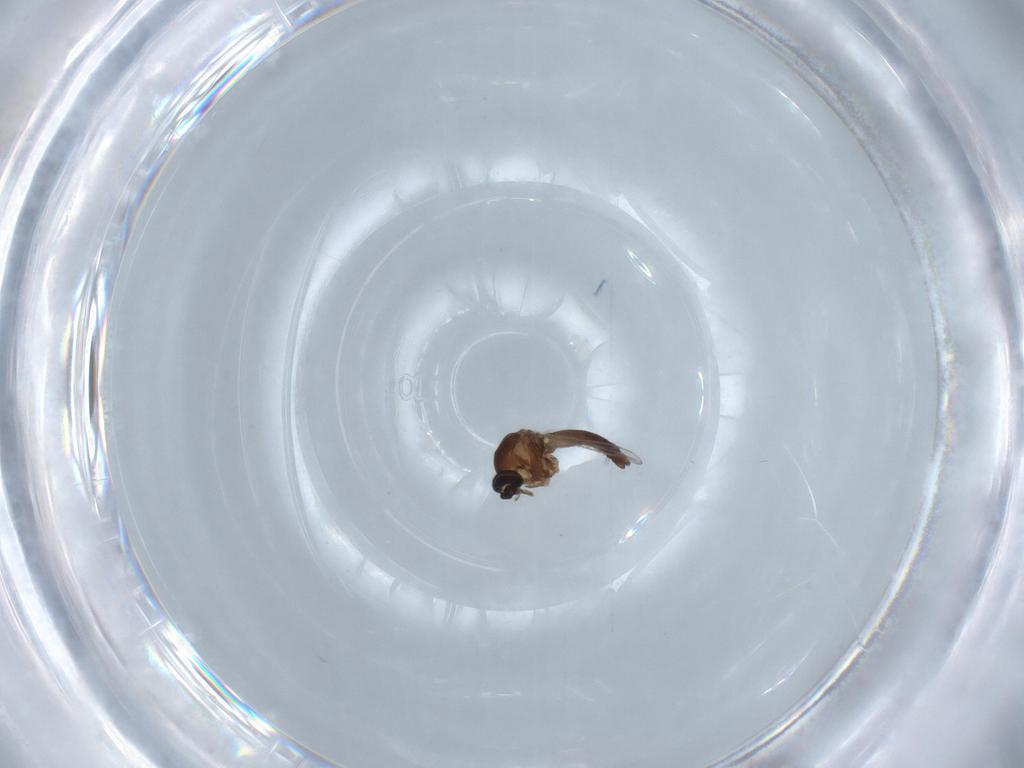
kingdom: Animalia
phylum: Arthropoda
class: Insecta
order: Diptera
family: Ceratopogonidae
